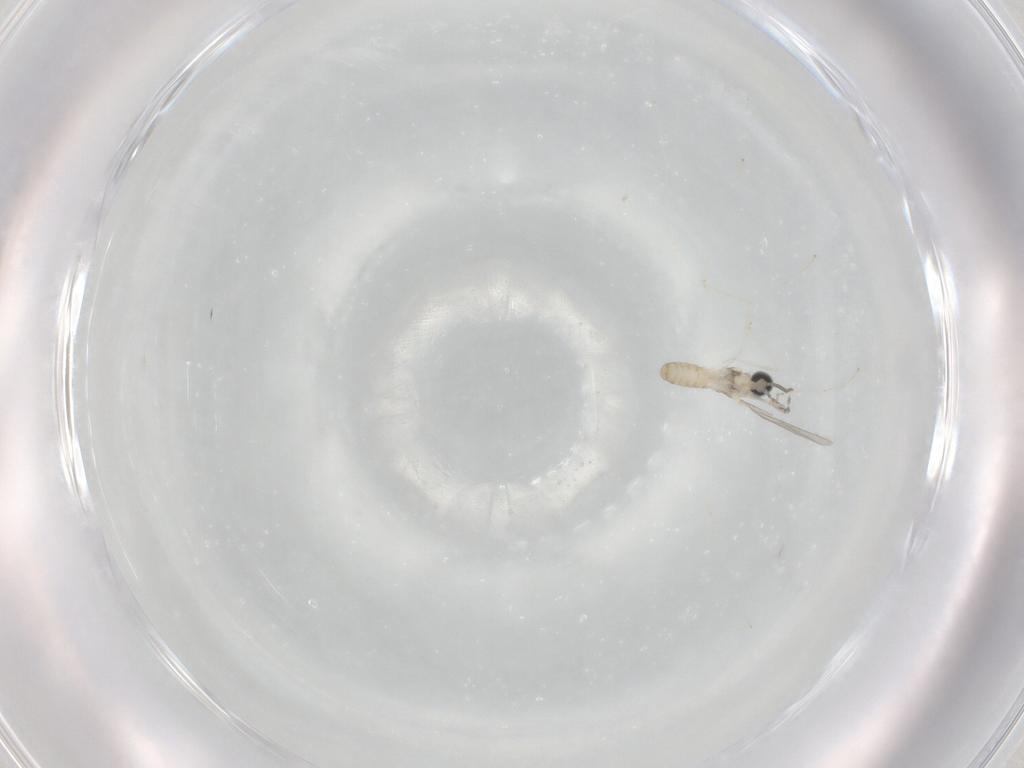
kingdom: Animalia
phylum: Arthropoda
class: Insecta
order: Diptera
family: Cecidomyiidae
